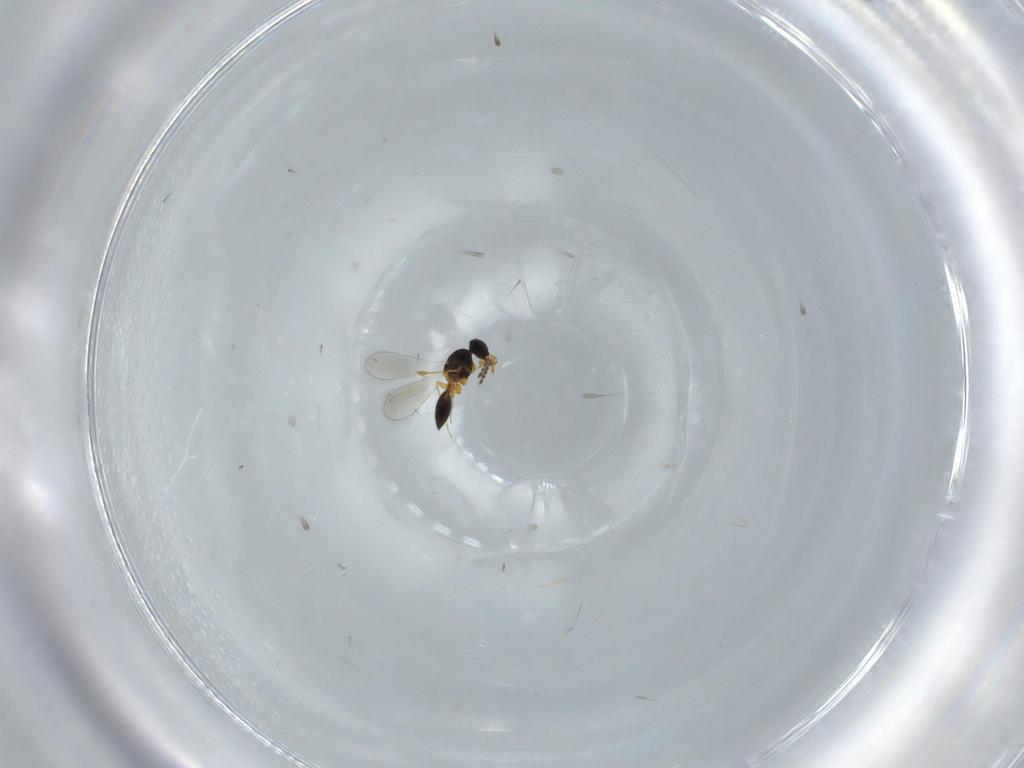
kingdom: Animalia
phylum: Arthropoda
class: Insecta
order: Hymenoptera
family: Platygastridae
